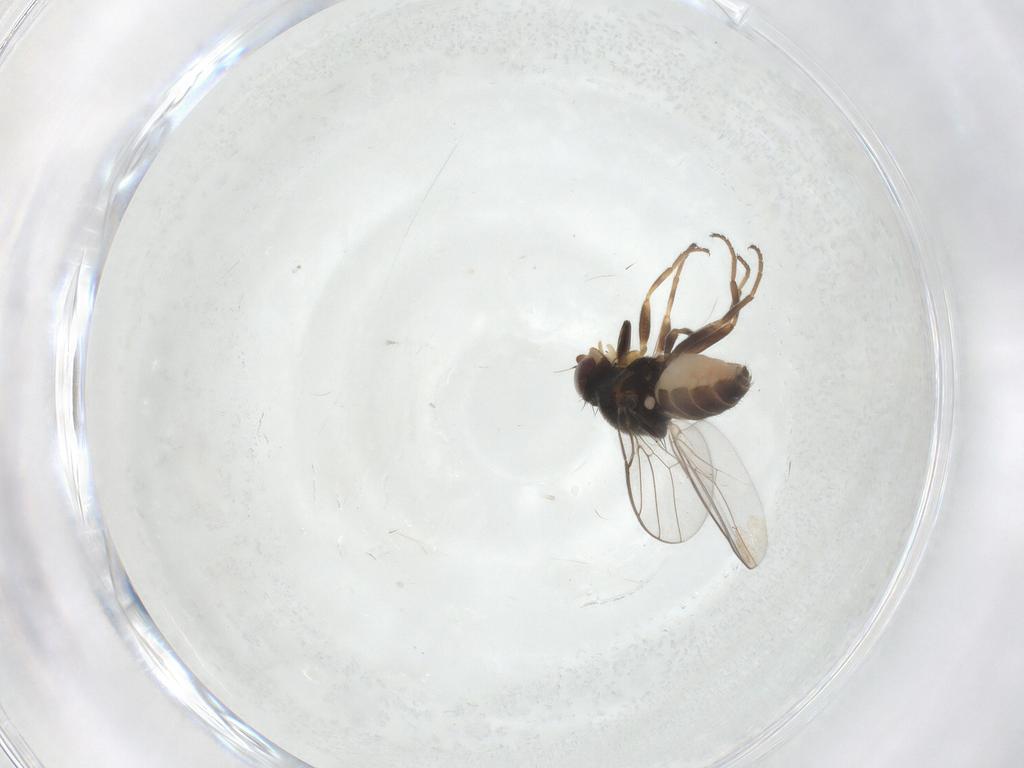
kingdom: Animalia
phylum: Arthropoda
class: Insecta
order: Diptera
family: Chloropidae
